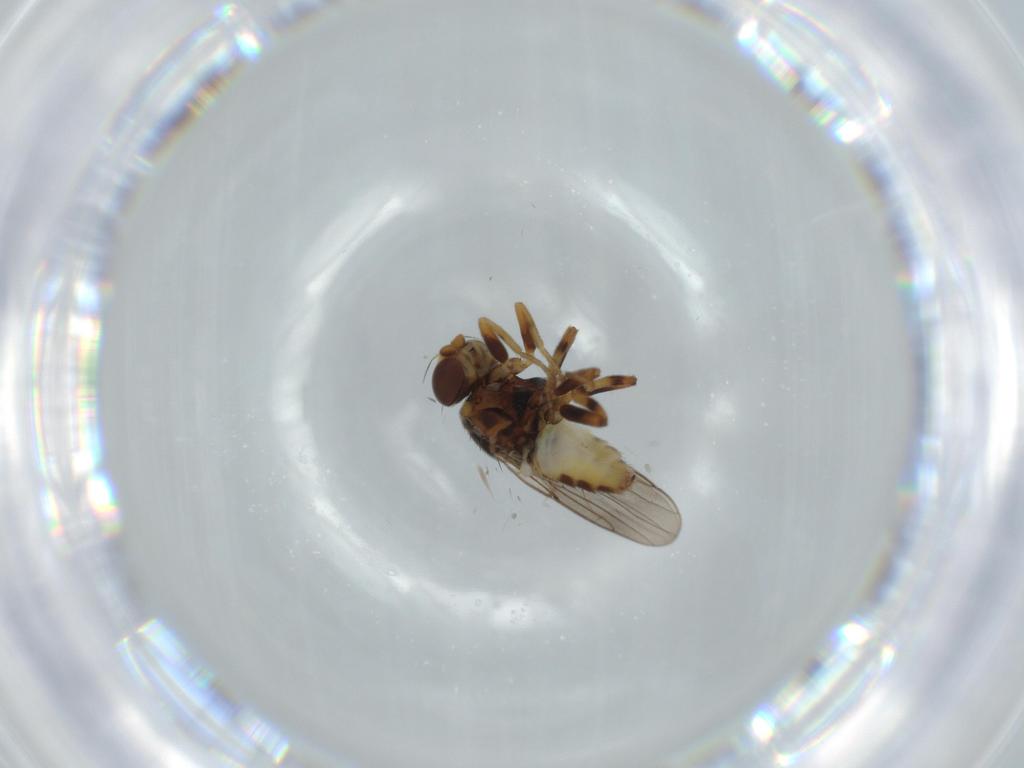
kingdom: Animalia
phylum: Arthropoda
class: Insecta
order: Diptera
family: Chloropidae
